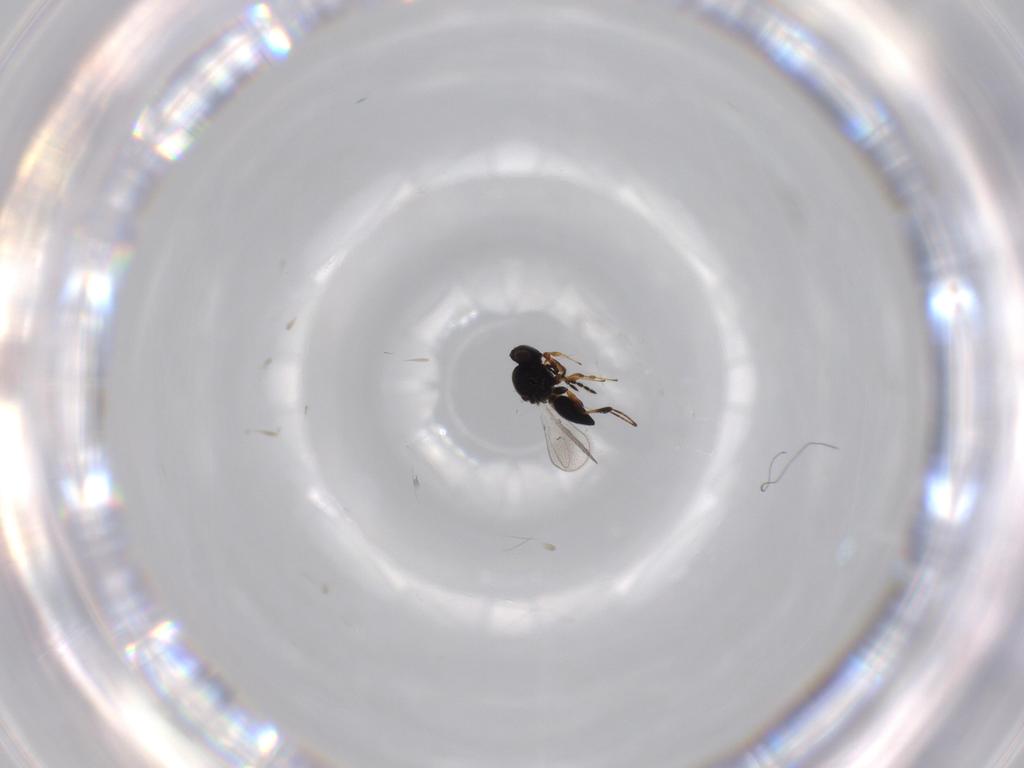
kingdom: Animalia
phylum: Arthropoda
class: Insecta
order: Hymenoptera
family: Platygastridae
